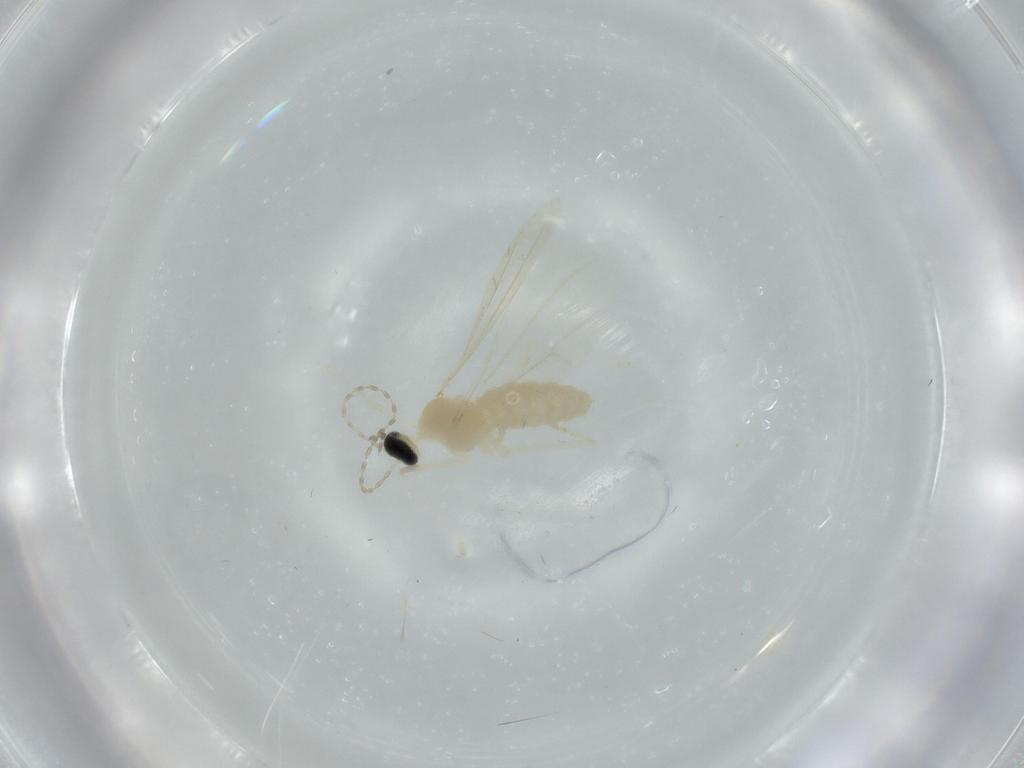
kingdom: Animalia
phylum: Arthropoda
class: Insecta
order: Diptera
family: Cecidomyiidae
